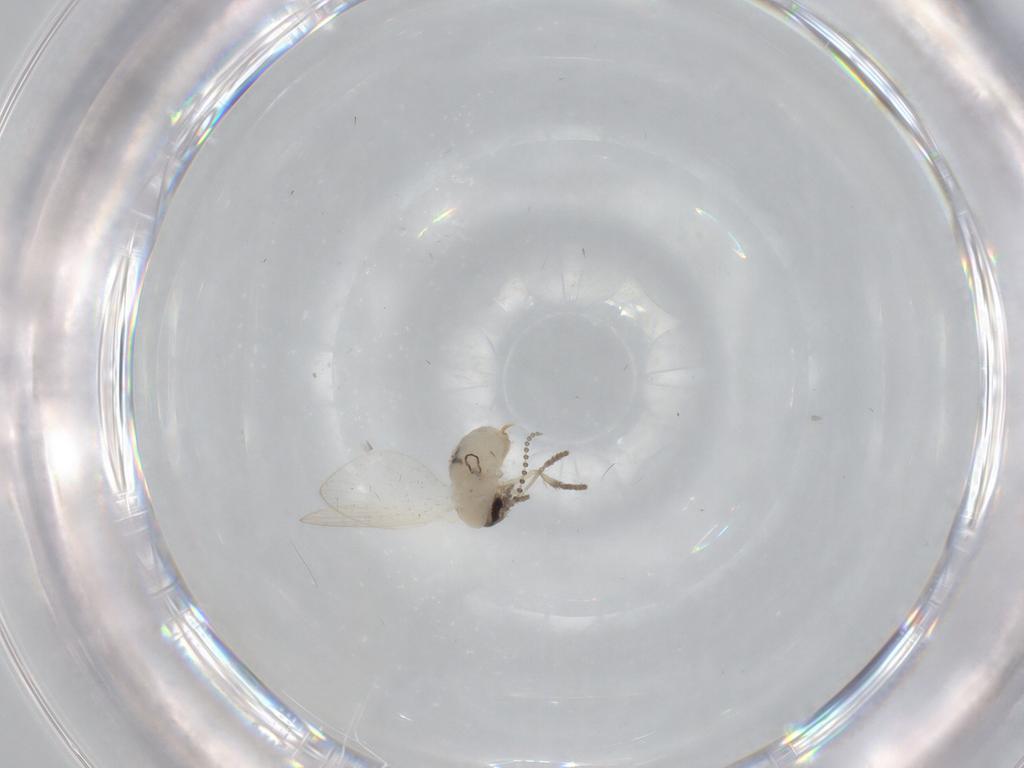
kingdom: Animalia
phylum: Arthropoda
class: Insecta
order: Diptera
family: Psychodidae
